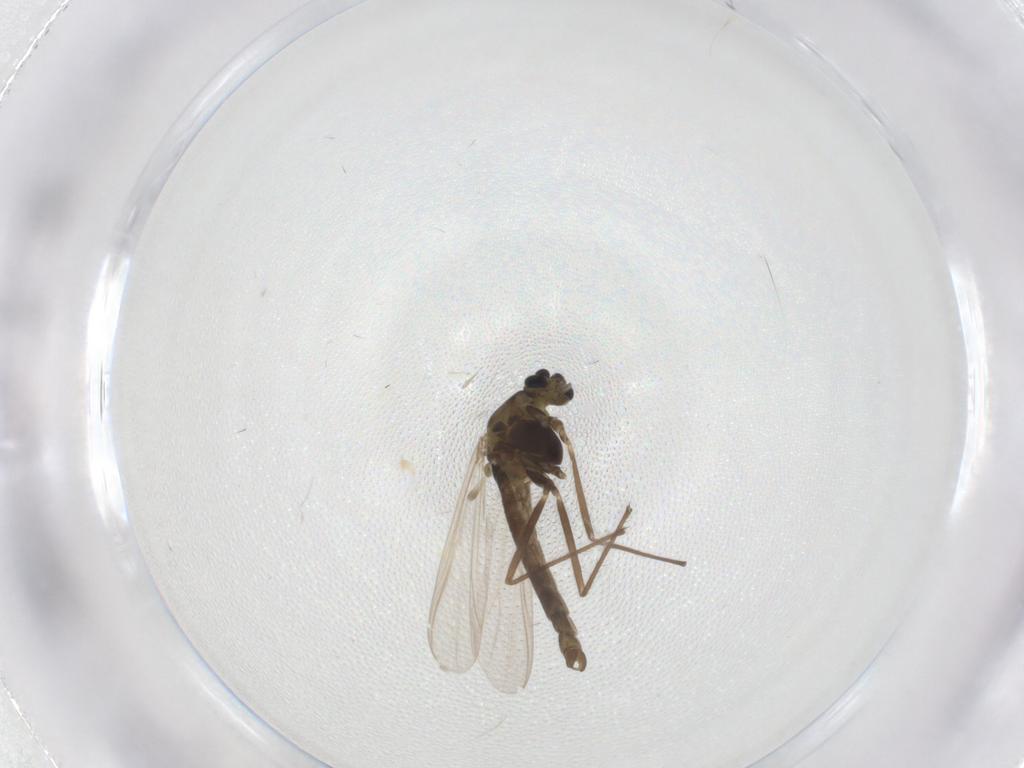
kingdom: Animalia
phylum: Arthropoda
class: Insecta
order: Diptera
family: Chironomidae
